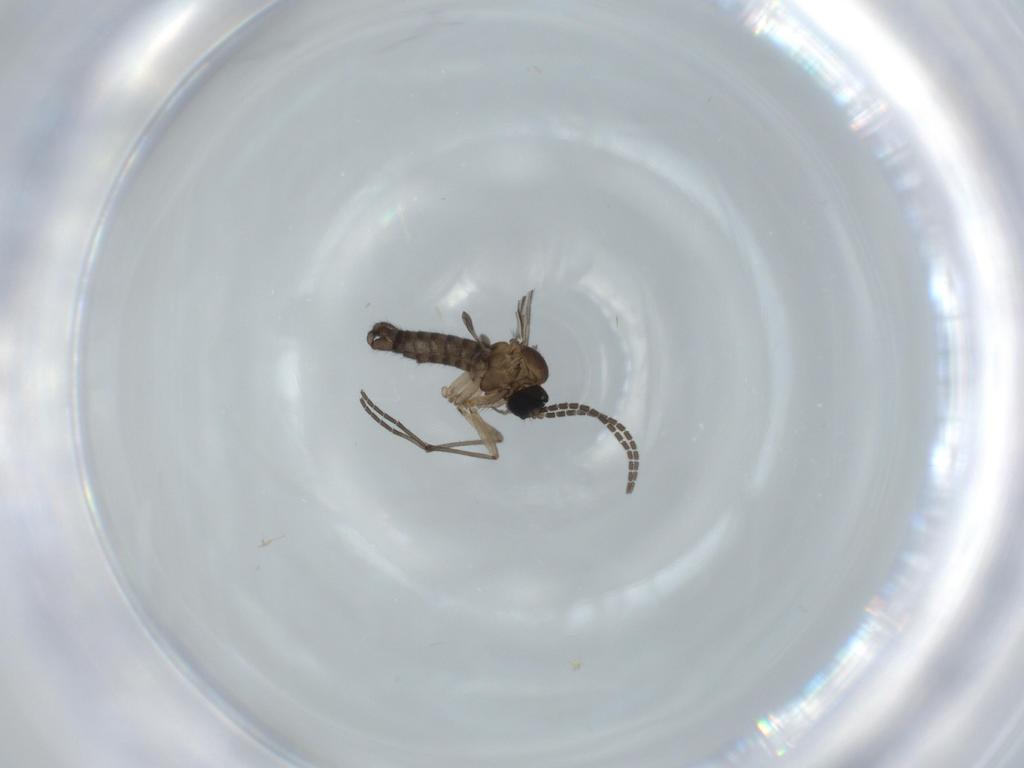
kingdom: Animalia
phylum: Arthropoda
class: Insecta
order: Diptera
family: Sciaridae
